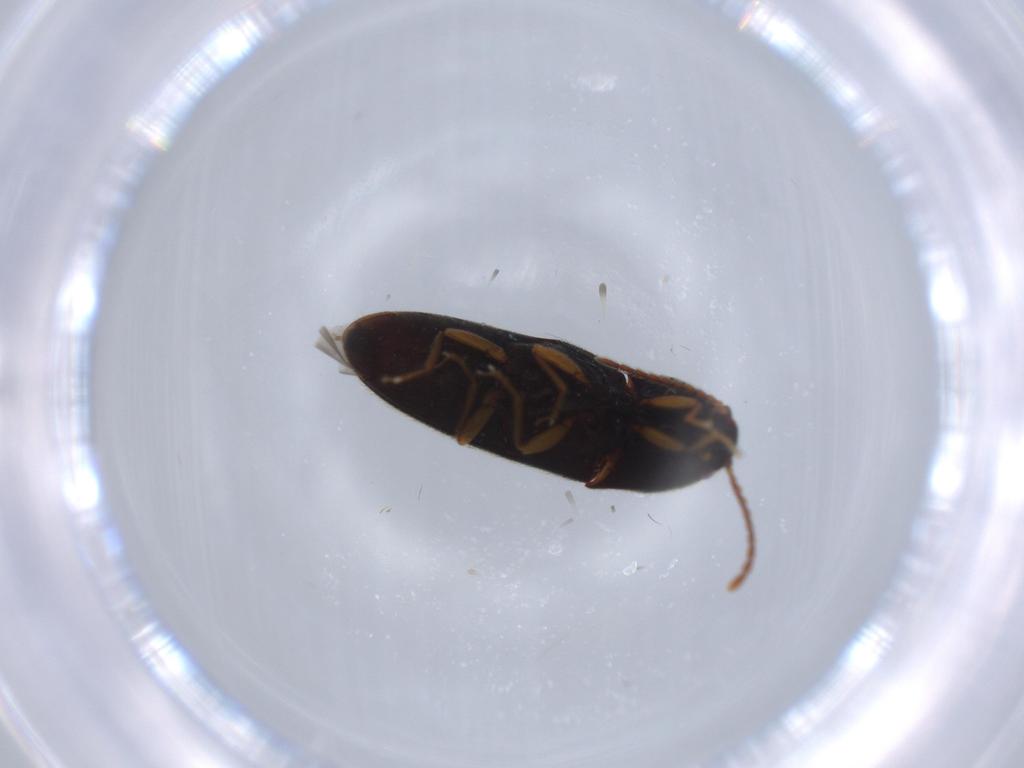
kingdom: Animalia
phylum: Arthropoda
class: Insecta
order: Coleoptera
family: Elateridae
